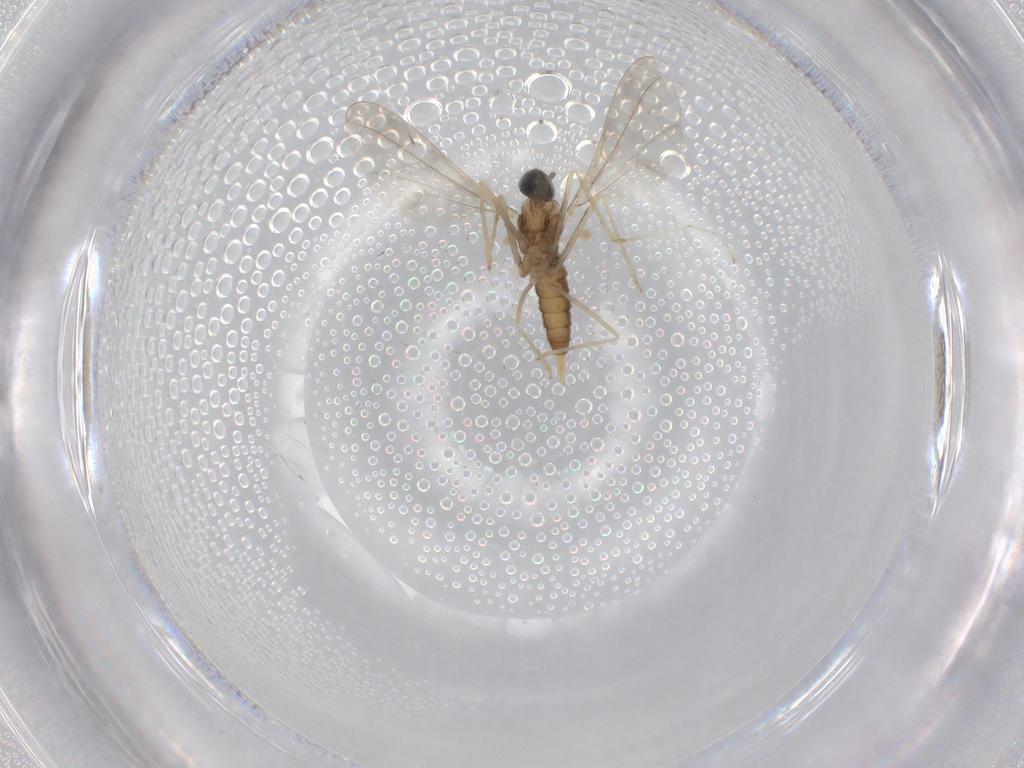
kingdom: Animalia
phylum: Arthropoda
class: Insecta
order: Diptera
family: Cecidomyiidae
